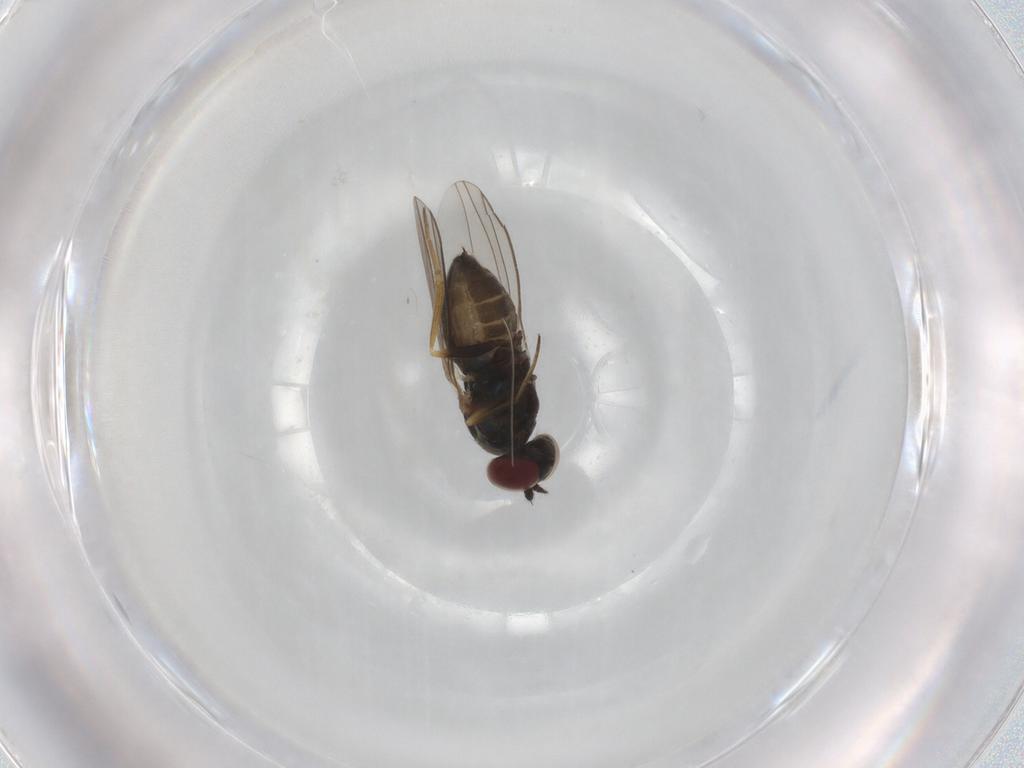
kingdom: Animalia
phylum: Arthropoda
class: Insecta
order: Diptera
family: Dolichopodidae
